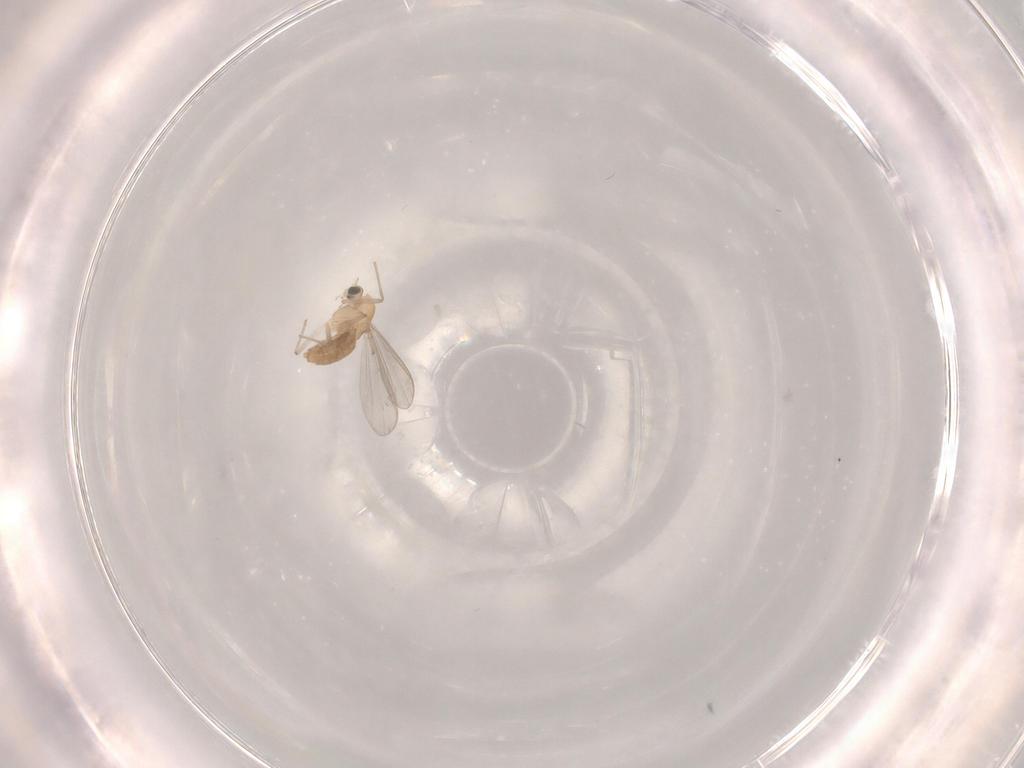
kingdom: Animalia
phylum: Arthropoda
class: Insecta
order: Diptera
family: Chironomidae
